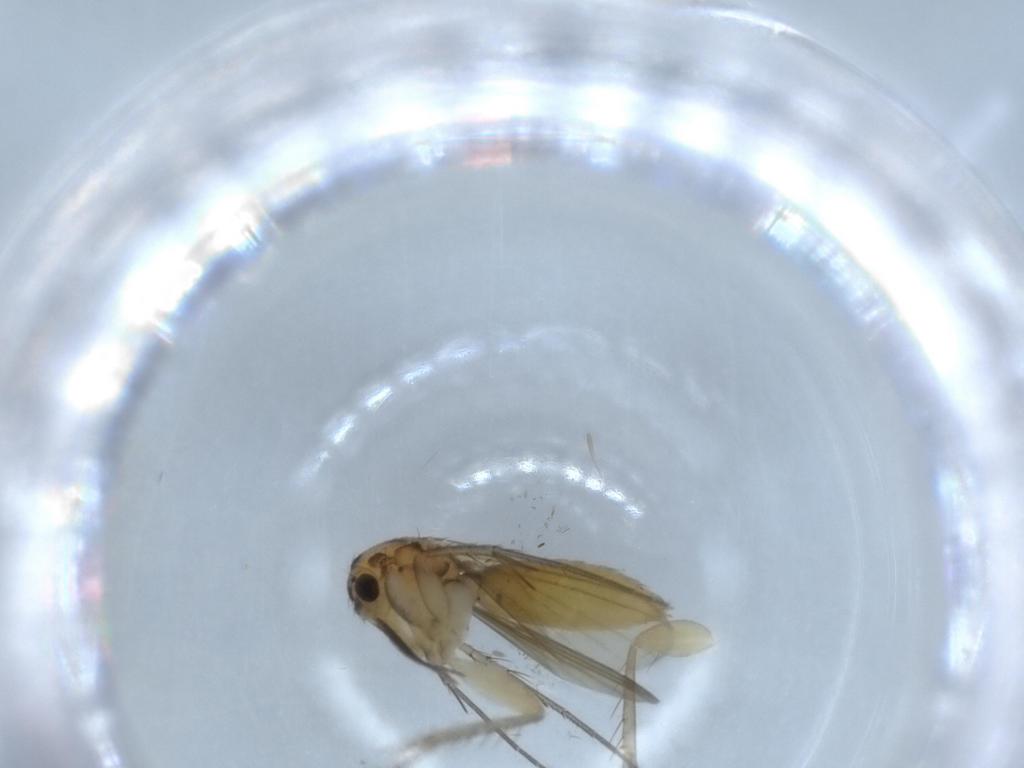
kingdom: Animalia
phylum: Arthropoda
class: Insecta
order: Diptera
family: Mycetophilidae
